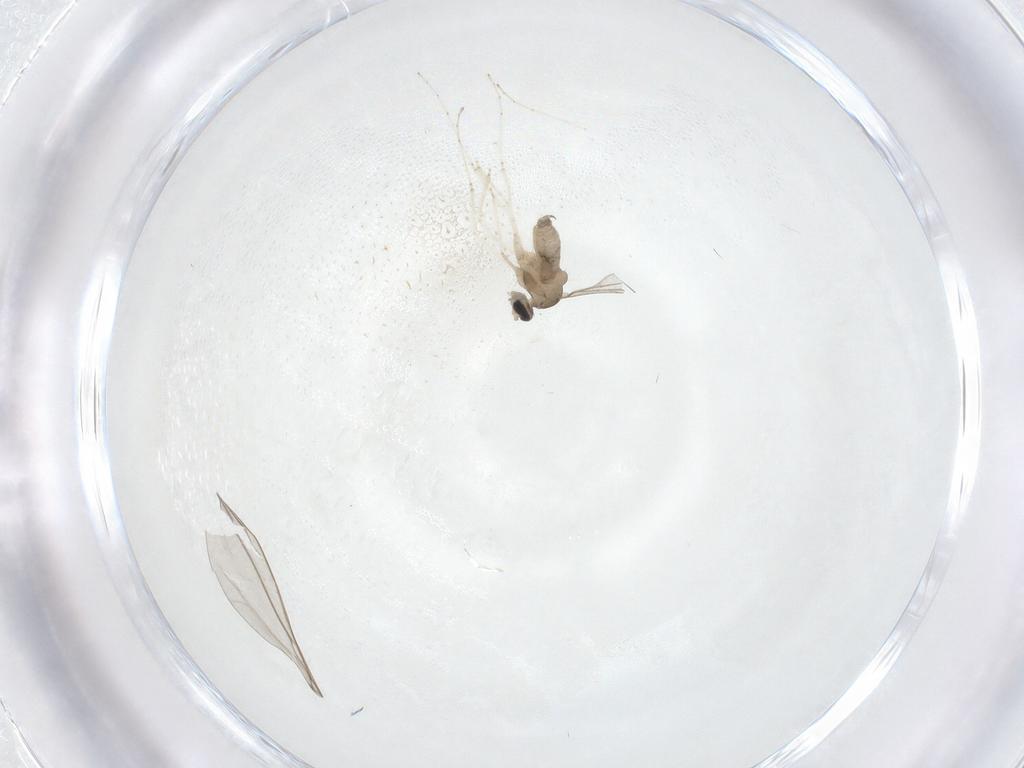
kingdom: Animalia
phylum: Arthropoda
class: Insecta
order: Diptera
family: Cecidomyiidae
